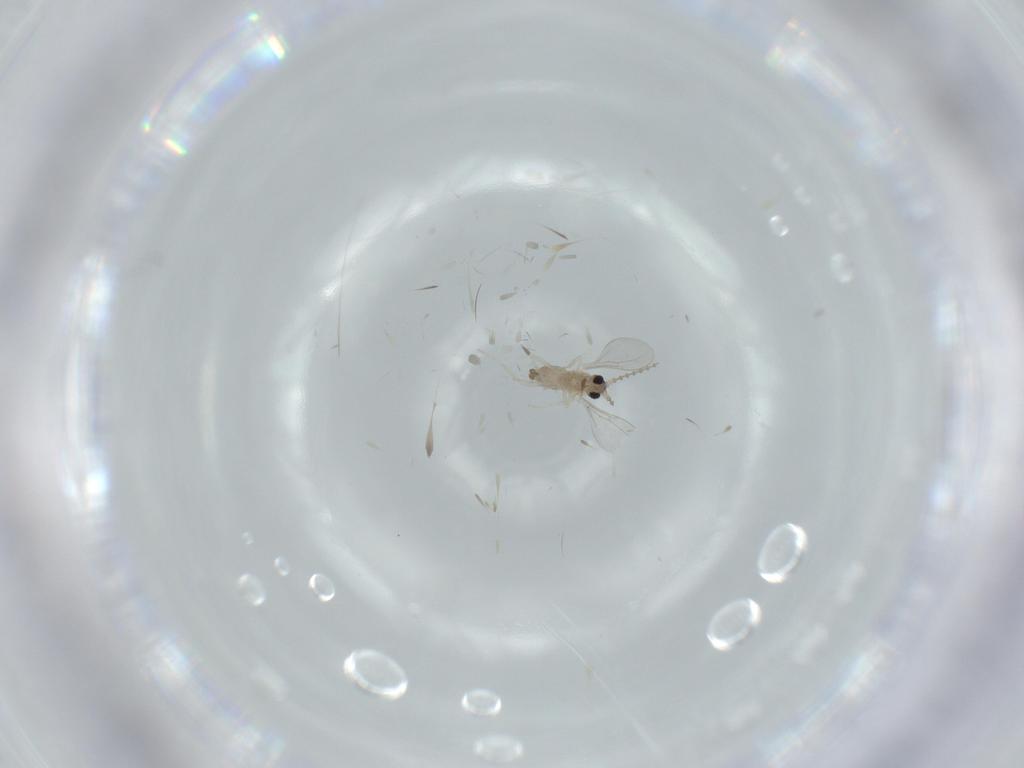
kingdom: Animalia
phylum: Arthropoda
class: Insecta
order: Diptera
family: Cecidomyiidae
